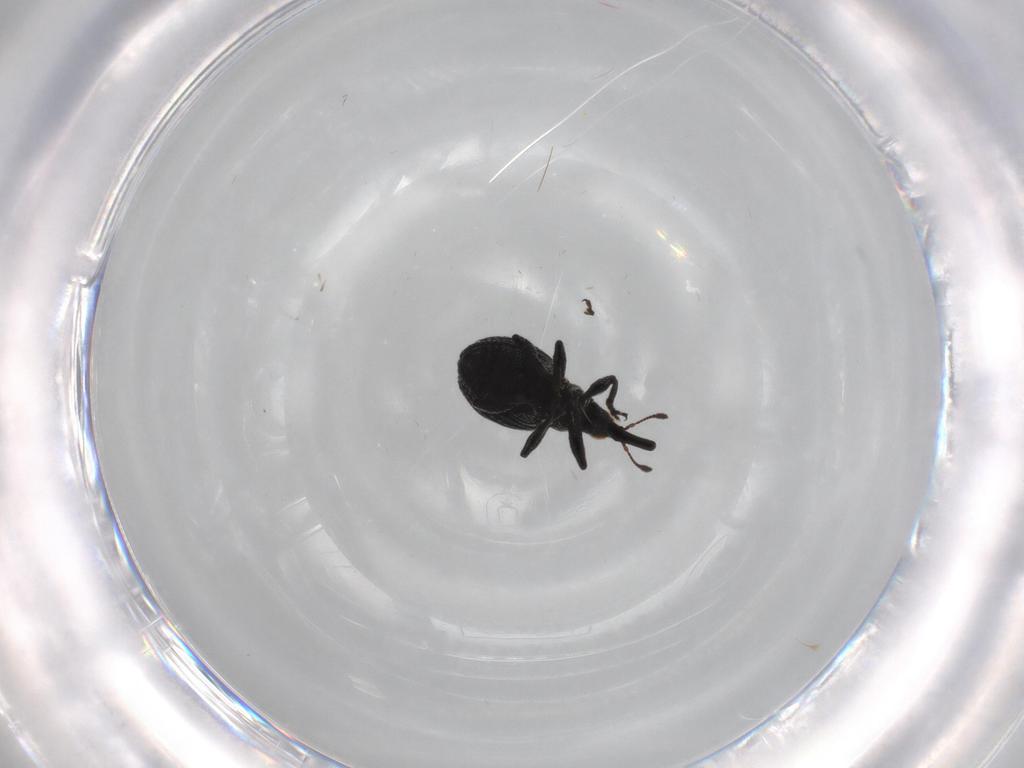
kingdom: Animalia
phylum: Arthropoda
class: Insecta
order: Coleoptera
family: Brentidae
